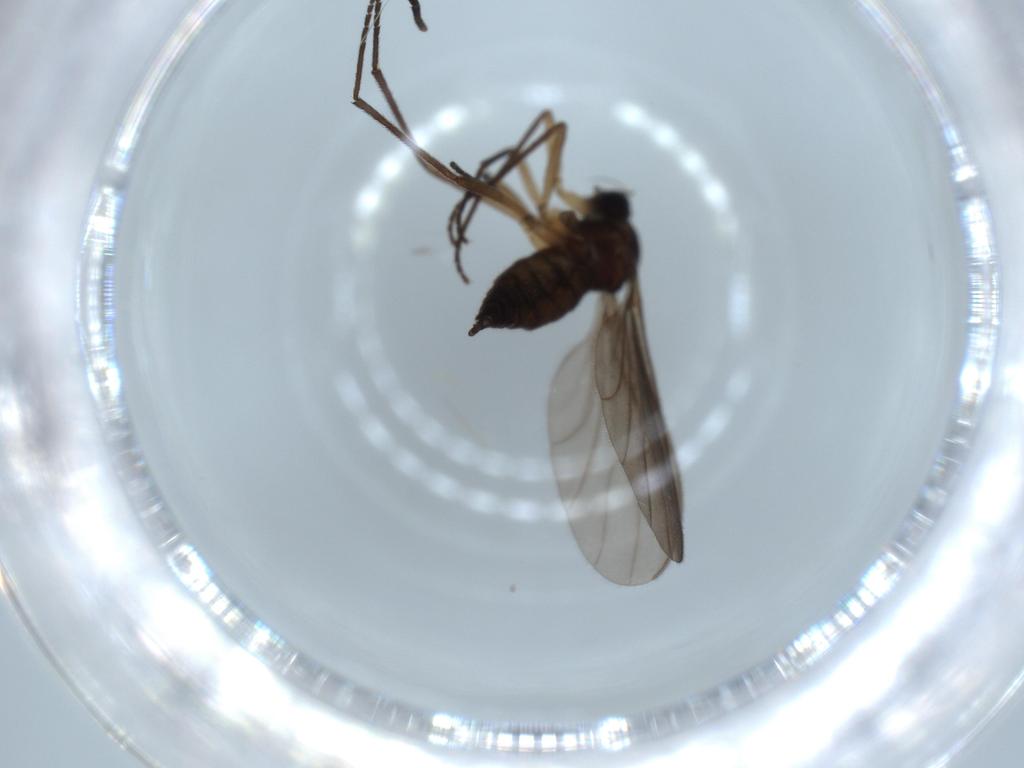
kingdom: Animalia
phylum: Arthropoda
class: Insecta
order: Diptera
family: Sciaridae
